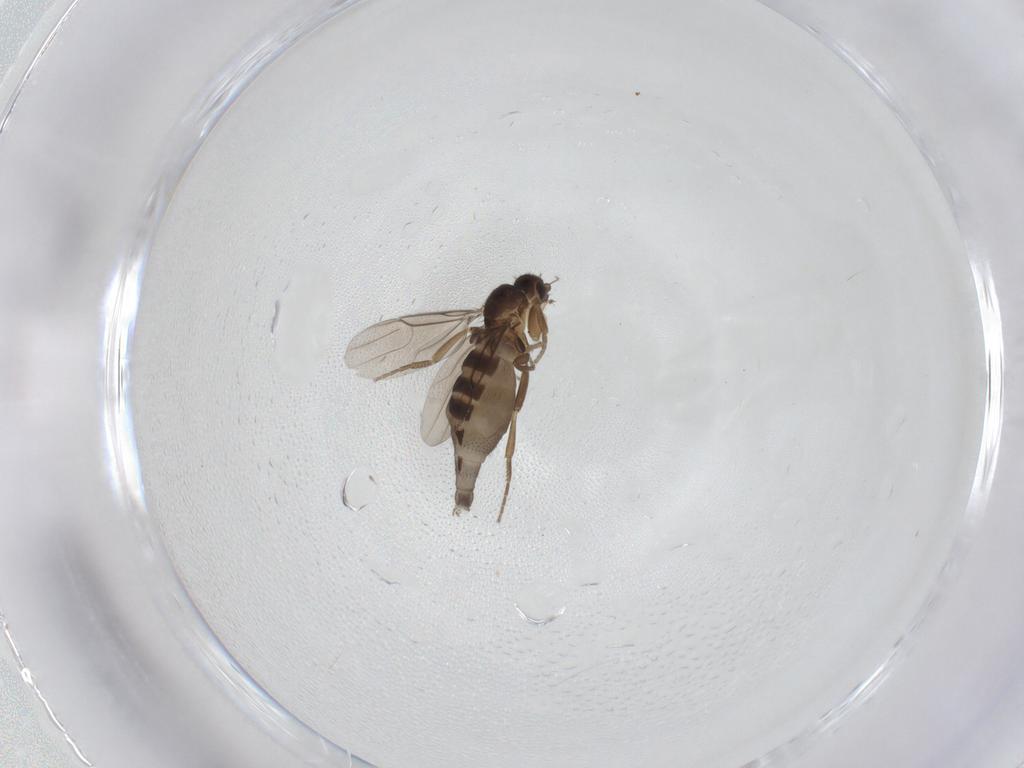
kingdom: Animalia
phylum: Arthropoda
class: Insecta
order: Diptera
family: Phoridae
